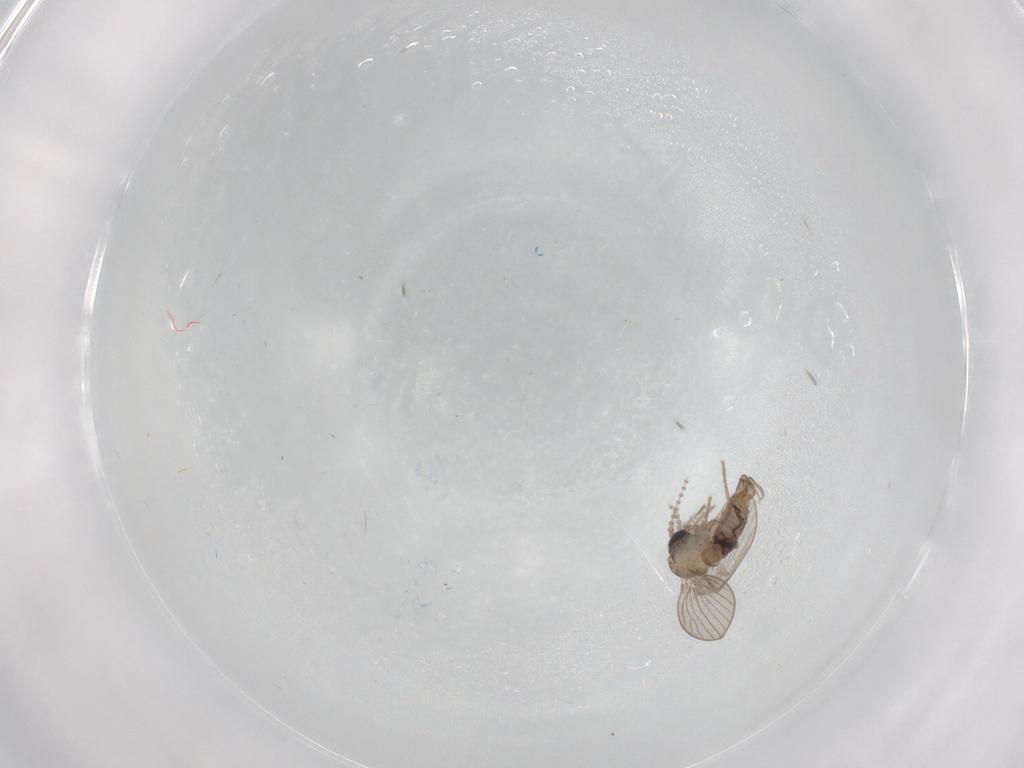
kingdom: Animalia
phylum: Arthropoda
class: Insecta
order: Diptera
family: Psychodidae
